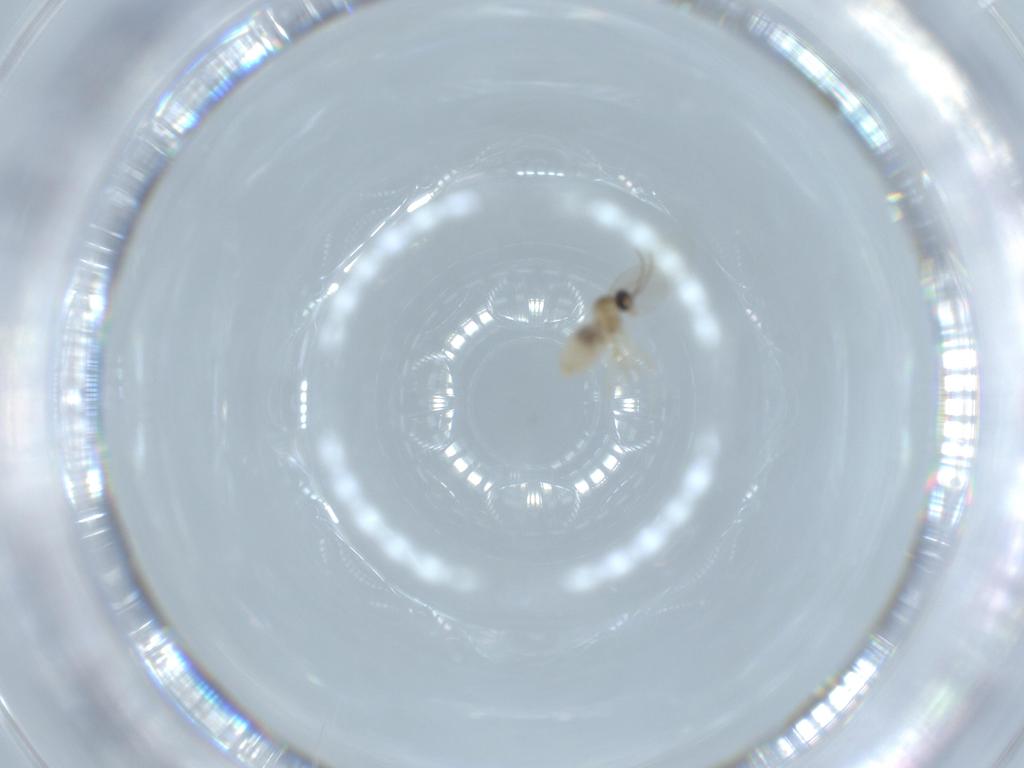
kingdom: Animalia
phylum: Arthropoda
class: Insecta
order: Diptera
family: Cecidomyiidae
